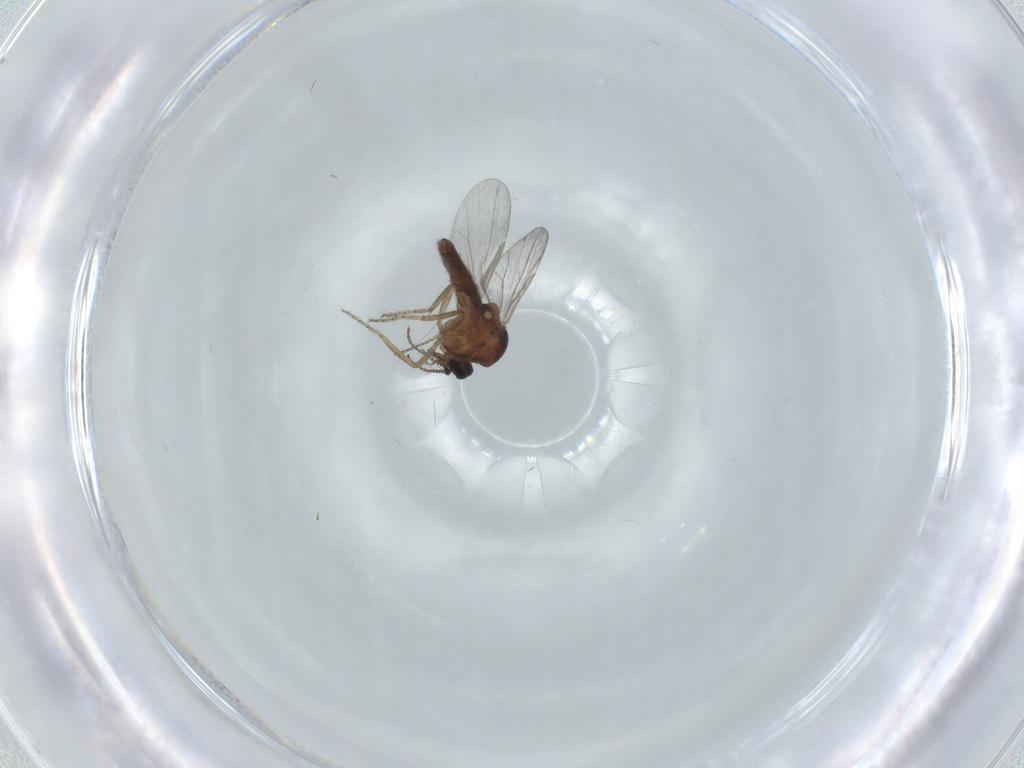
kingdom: Animalia
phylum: Arthropoda
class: Insecta
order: Diptera
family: Ceratopogonidae
